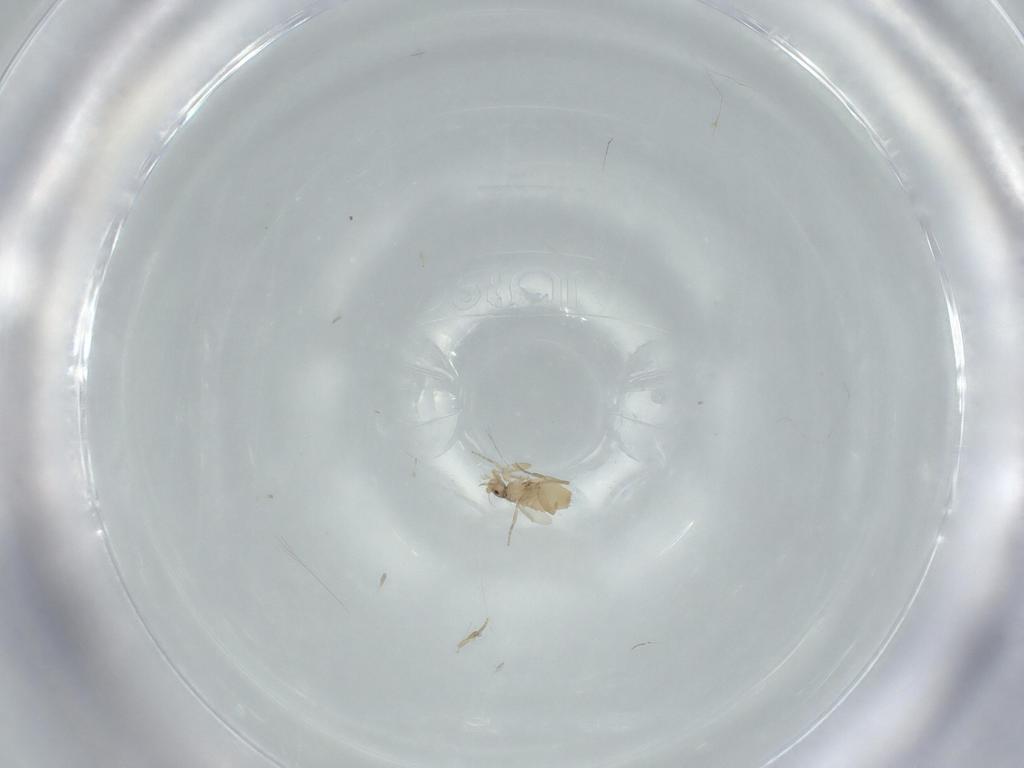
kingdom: Animalia
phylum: Arthropoda
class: Insecta
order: Diptera
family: Phoridae
